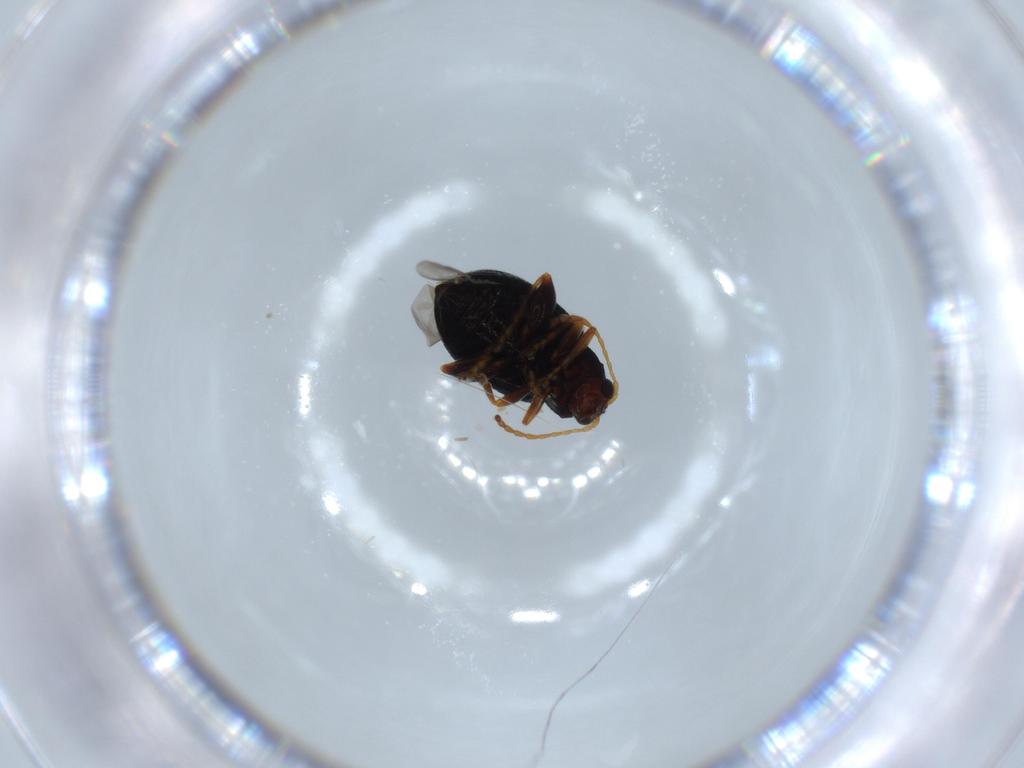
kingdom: Animalia
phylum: Arthropoda
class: Insecta
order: Coleoptera
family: Chrysomelidae
